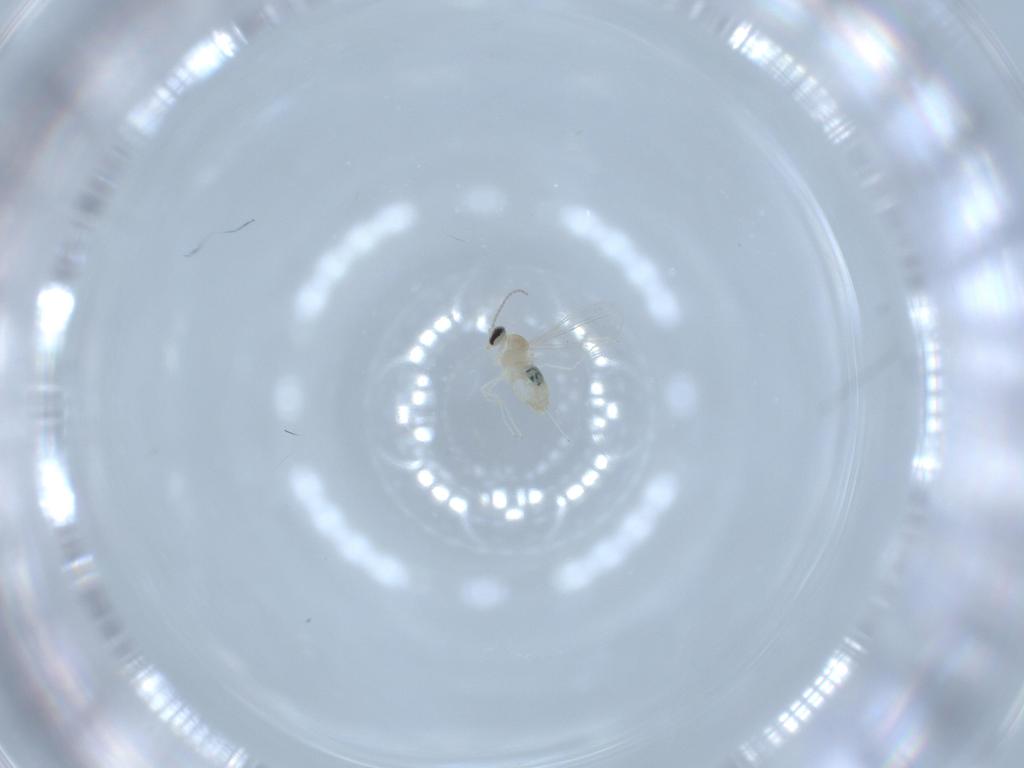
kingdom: Animalia
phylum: Arthropoda
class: Insecta
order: Diptera
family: Cecidomyiidae
